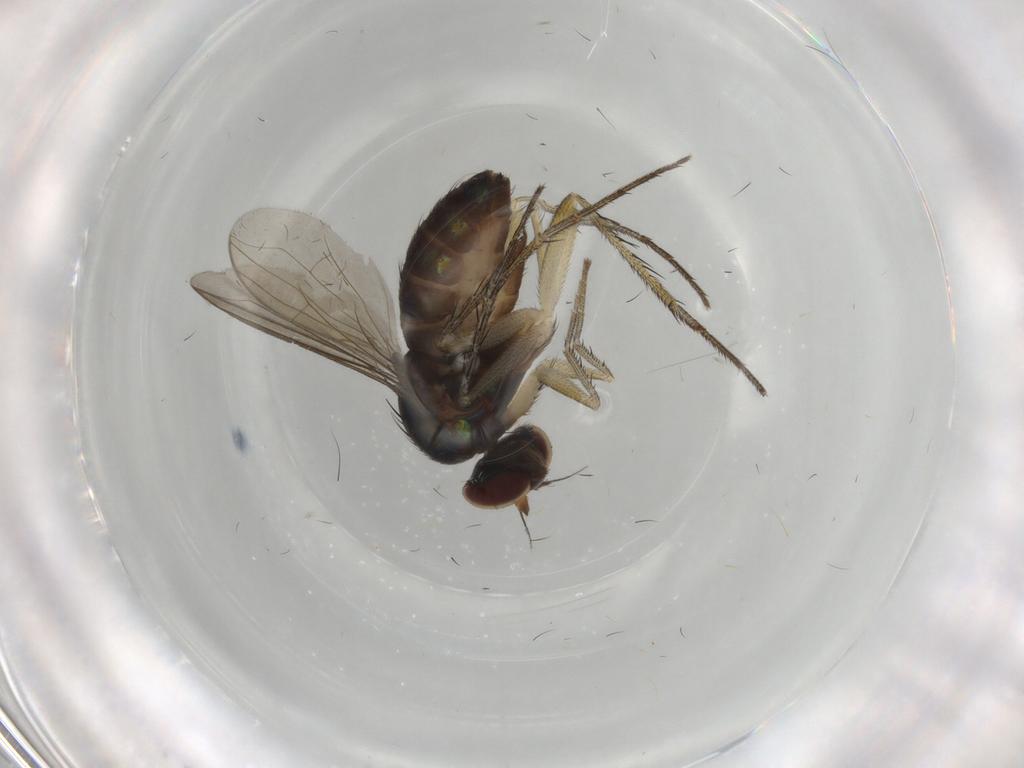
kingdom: Animalia
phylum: Arthropoda
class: Insecta
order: Diptera
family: Dolichopodidae
